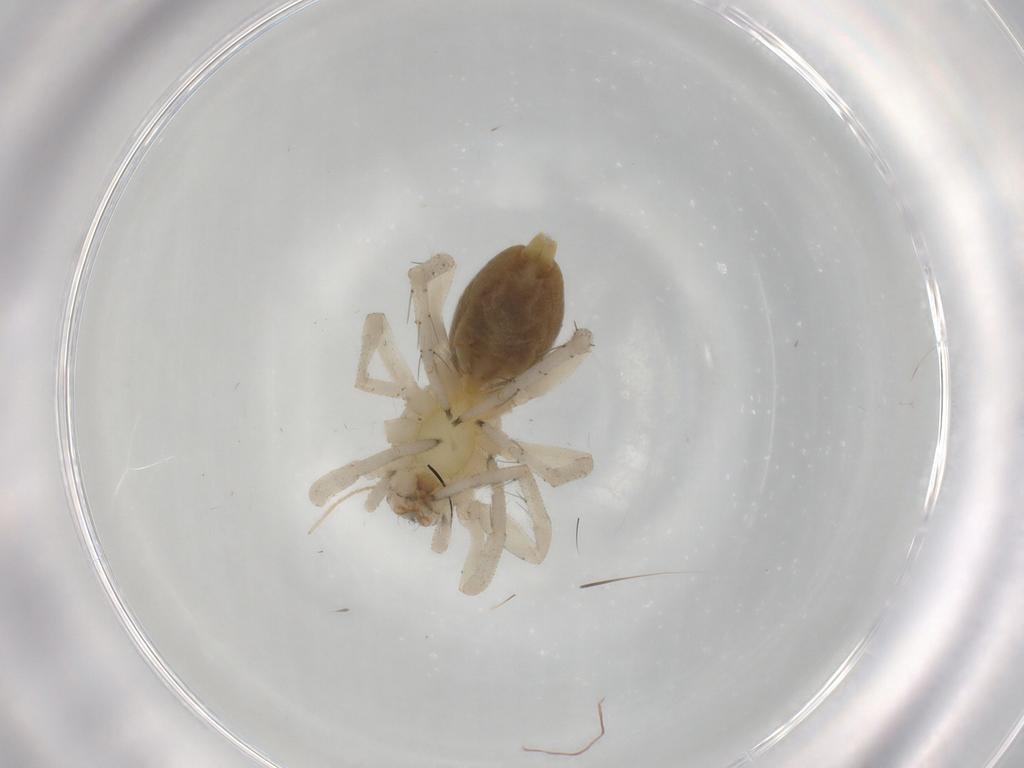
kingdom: Animalia
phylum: Arthropoda
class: Arachnida
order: Araneae
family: Clubionidae
